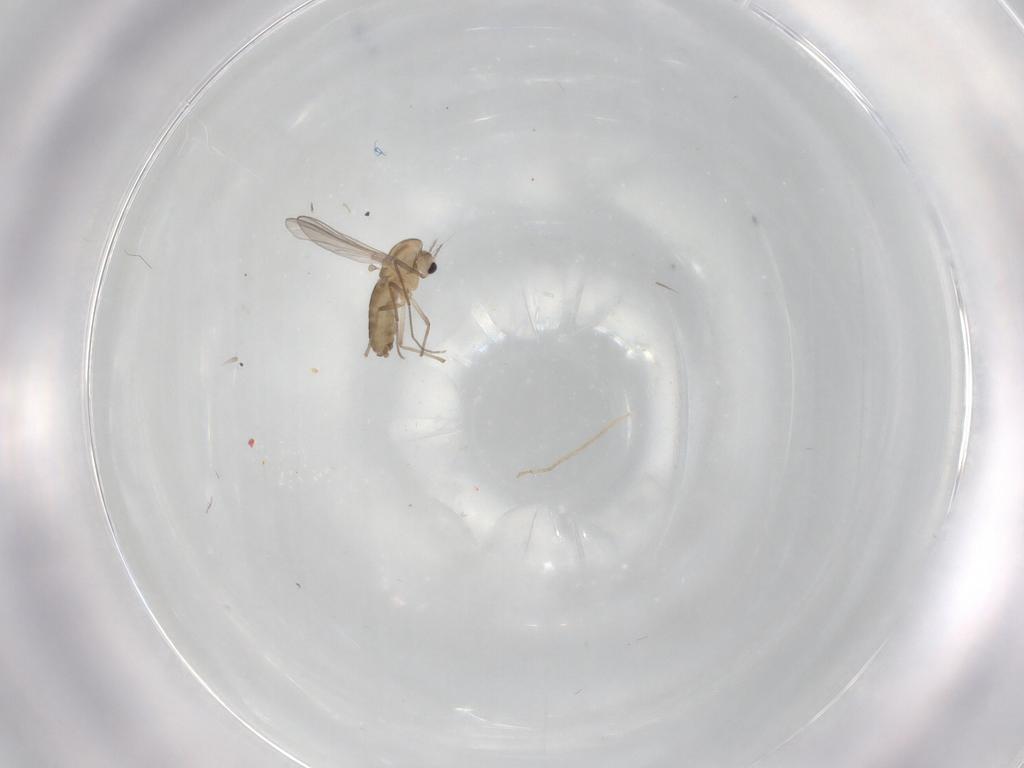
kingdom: Animalia
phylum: Arthropoda
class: Insecta
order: Diptera
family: Chironomidae
